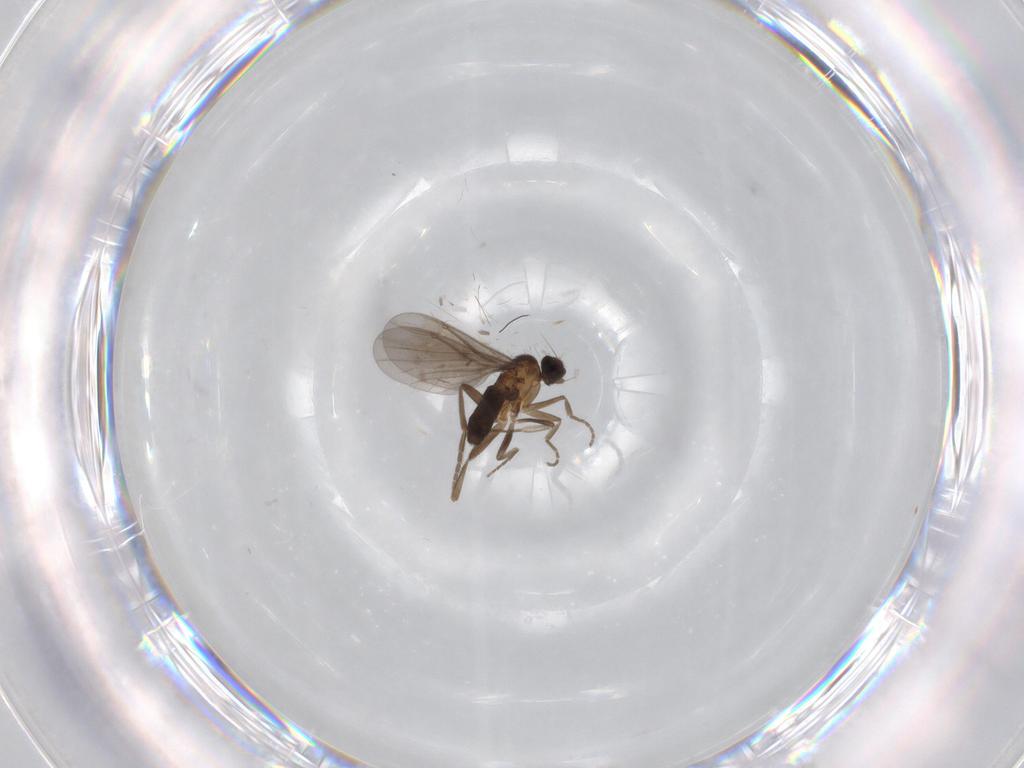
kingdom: Animalia
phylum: Arthropoda
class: Insecta
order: Diptera
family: Phoridae
